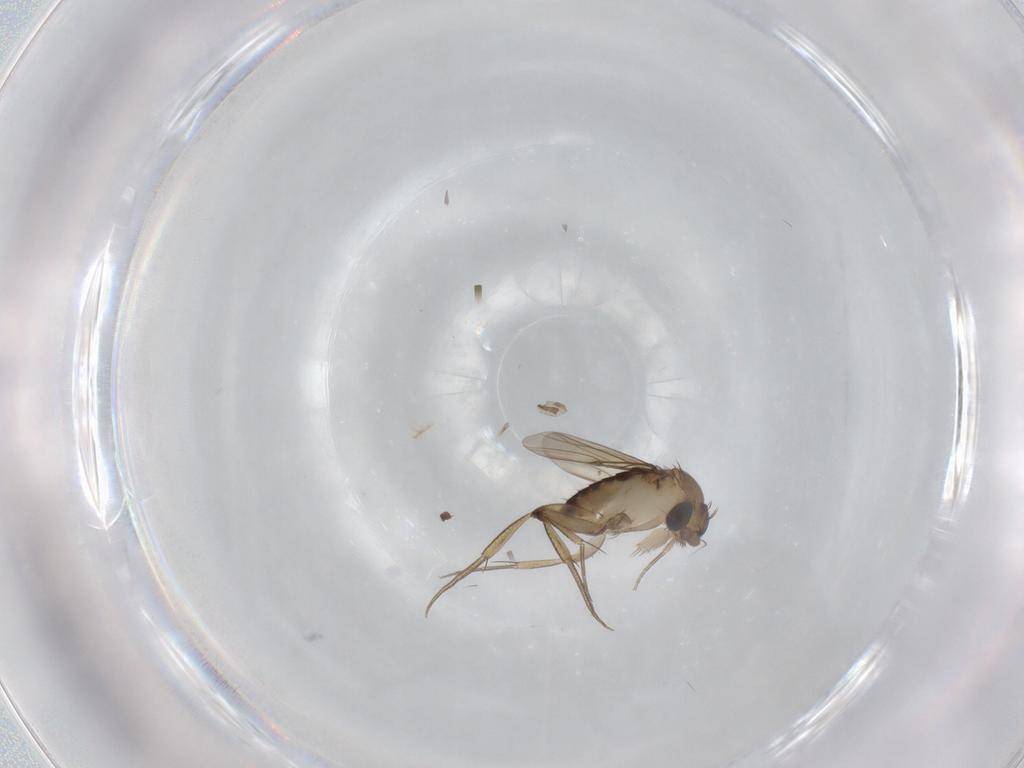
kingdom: Animalia
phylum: Arthropoda
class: Insecta
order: Diptera
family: Phoridae
